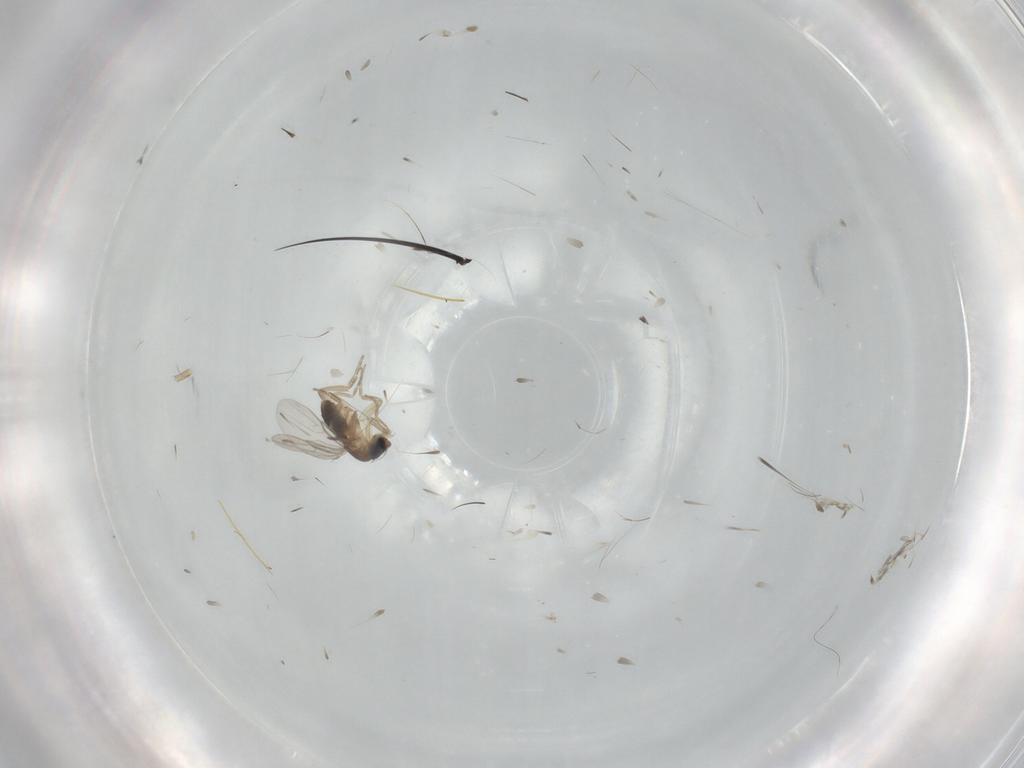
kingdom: Animalia
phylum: Arthropoda
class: Insecta
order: Diptera
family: Phoridae
